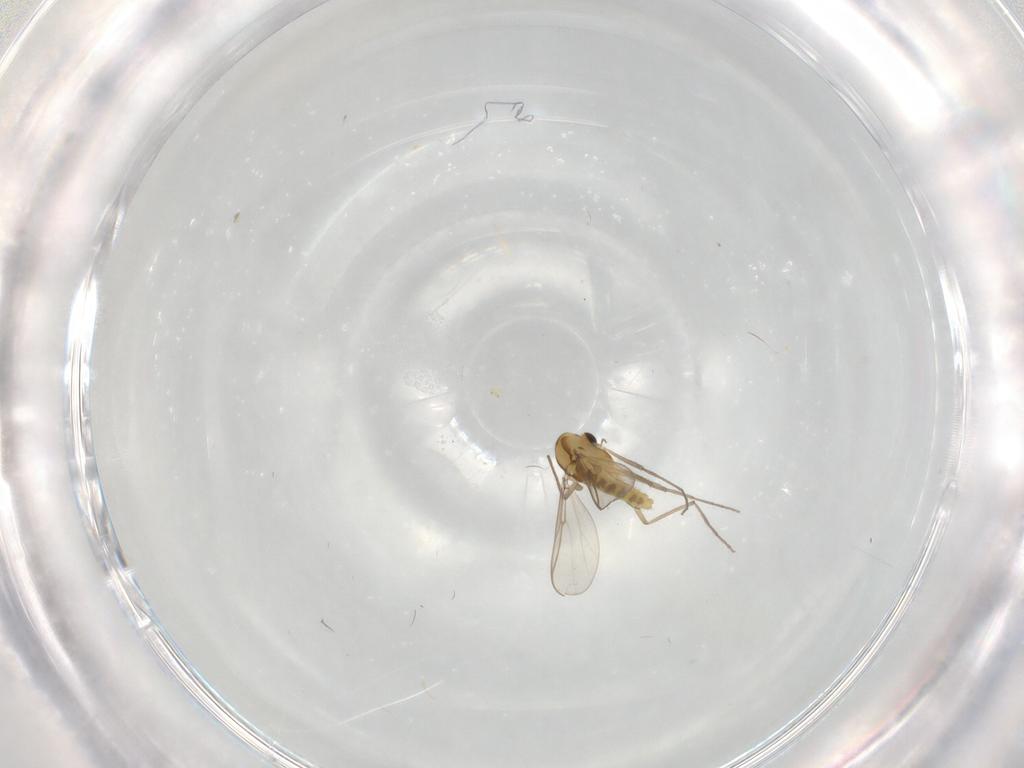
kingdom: Animalia
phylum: Arthropoda
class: Insecta
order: Diptera
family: Chironomidae
